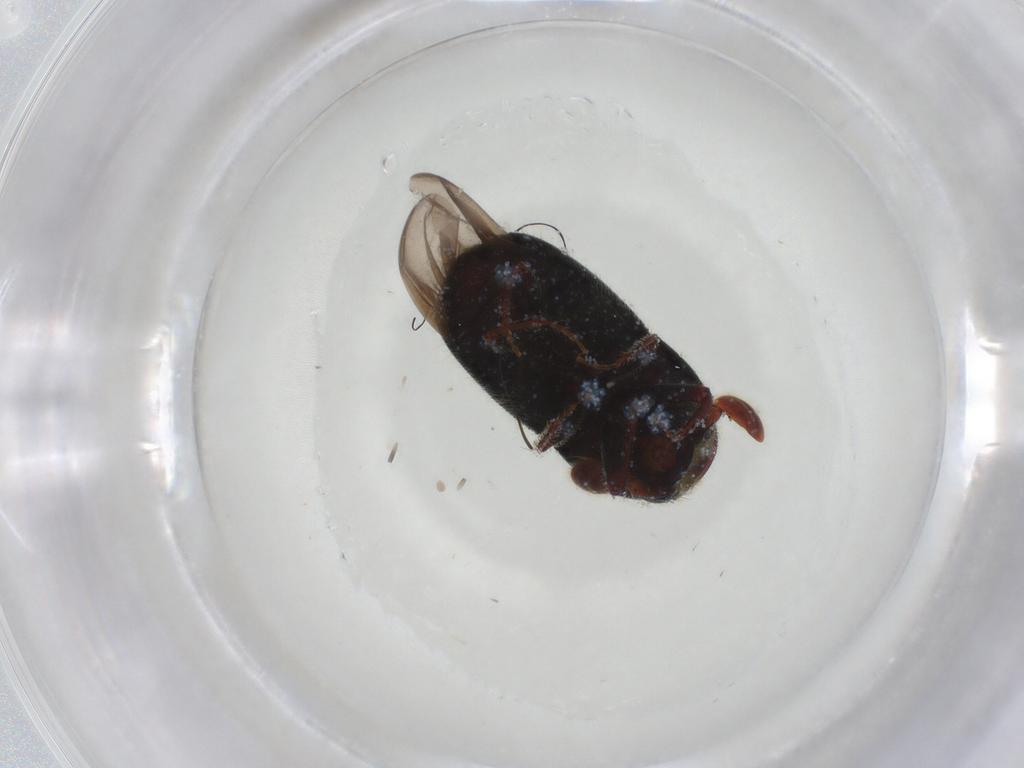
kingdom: Animalia
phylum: Arthropoda
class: Insecta
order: Coleoptera
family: Curculionidae
